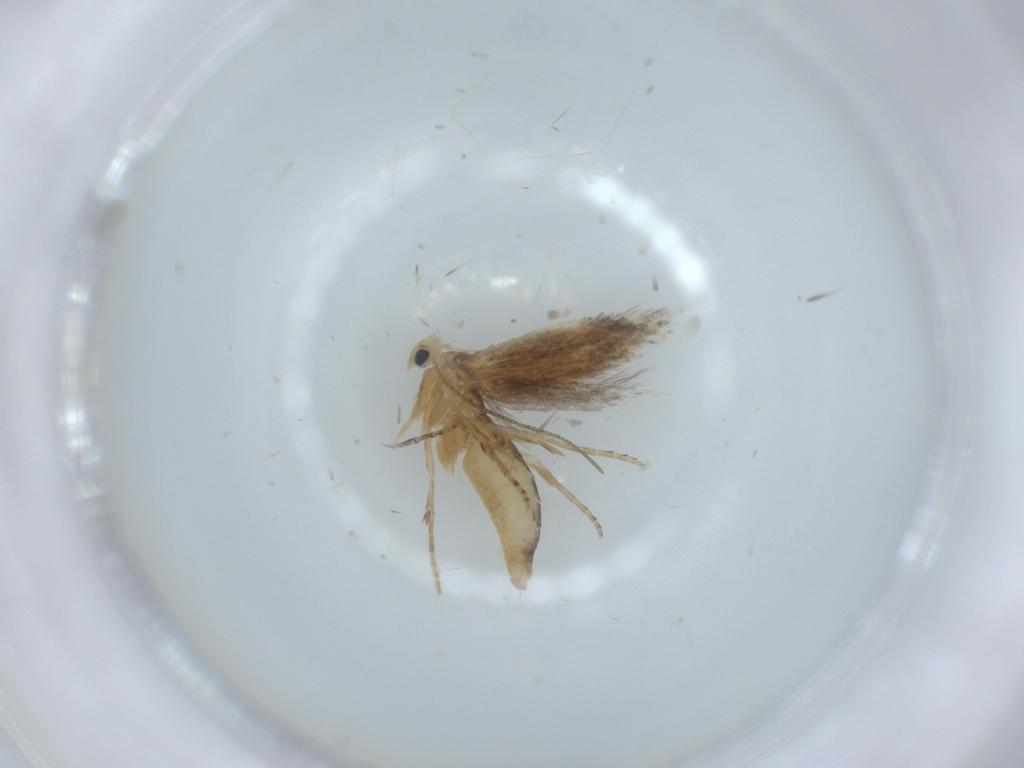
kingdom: Animalia
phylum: Arthropoda
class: Insecta
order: Lepidoptera
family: Bucculatricidae
